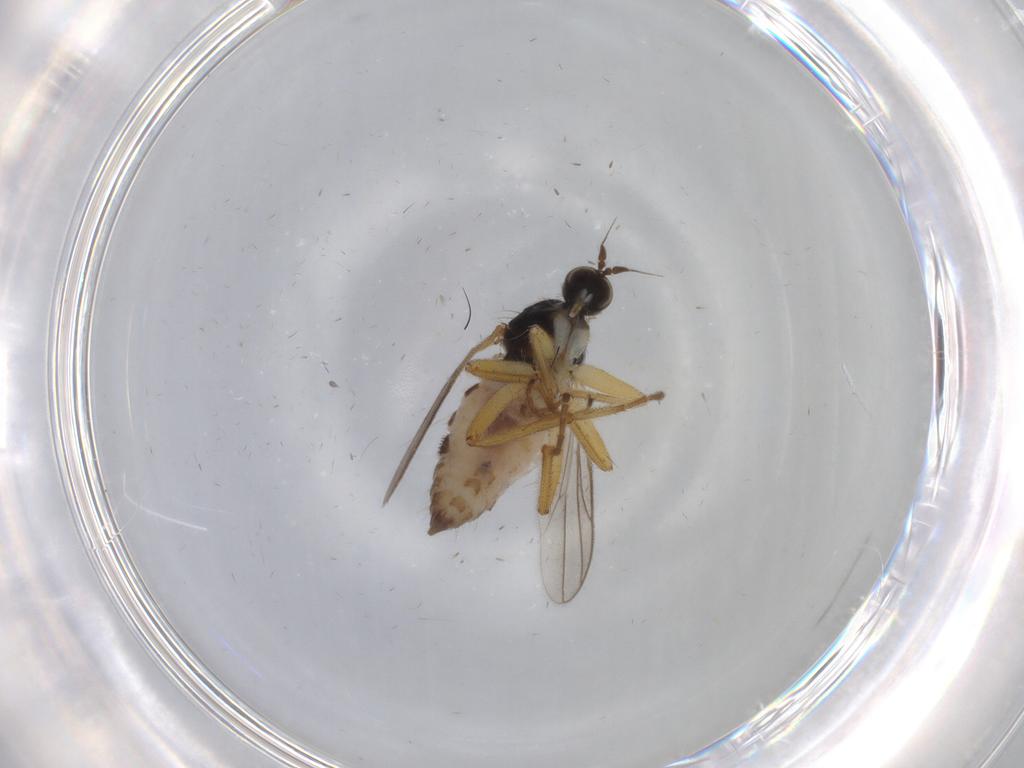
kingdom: Animalia
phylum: Arthropoda
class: Insecta
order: Diptera
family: Hybotidae
